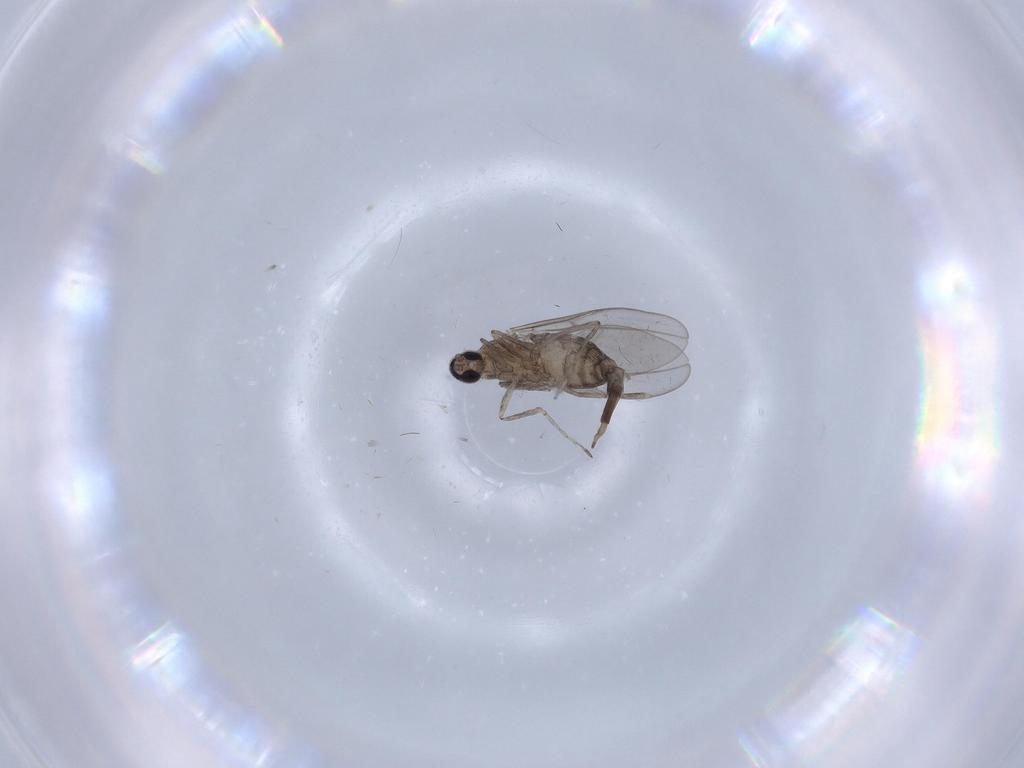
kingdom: Animalia
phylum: Arthropoda
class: Insecta
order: Diptera
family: Cecidomyiidae
